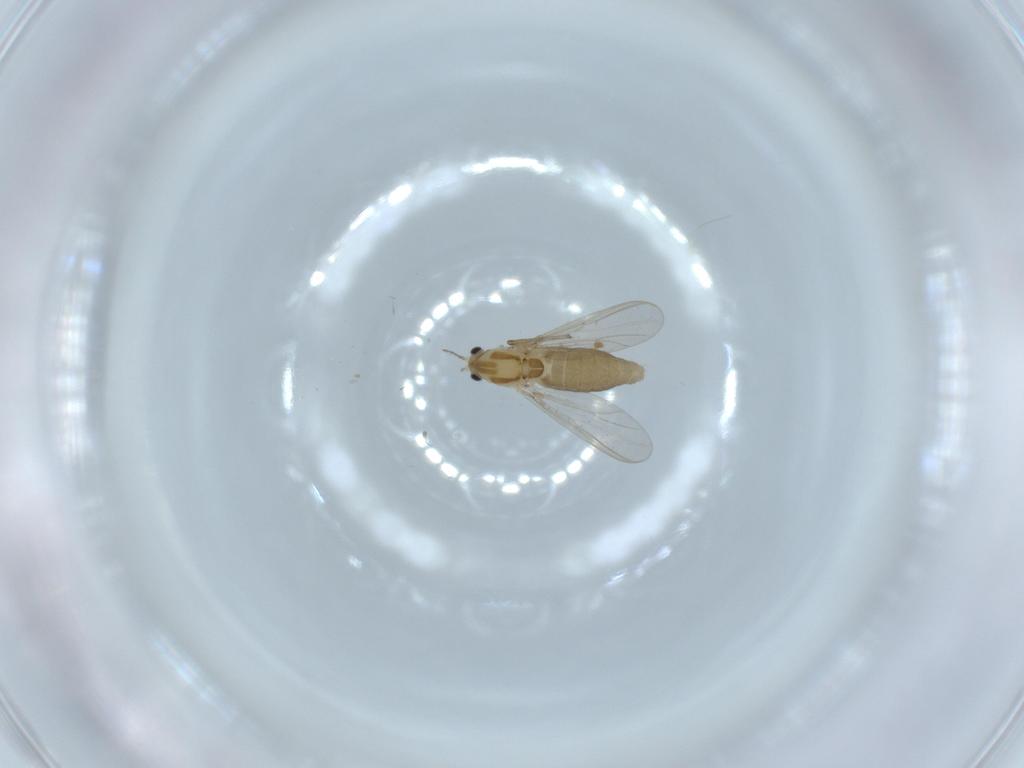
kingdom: Animalia
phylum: Arthropoda
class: Insecta
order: Diptera
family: Chironomidae
